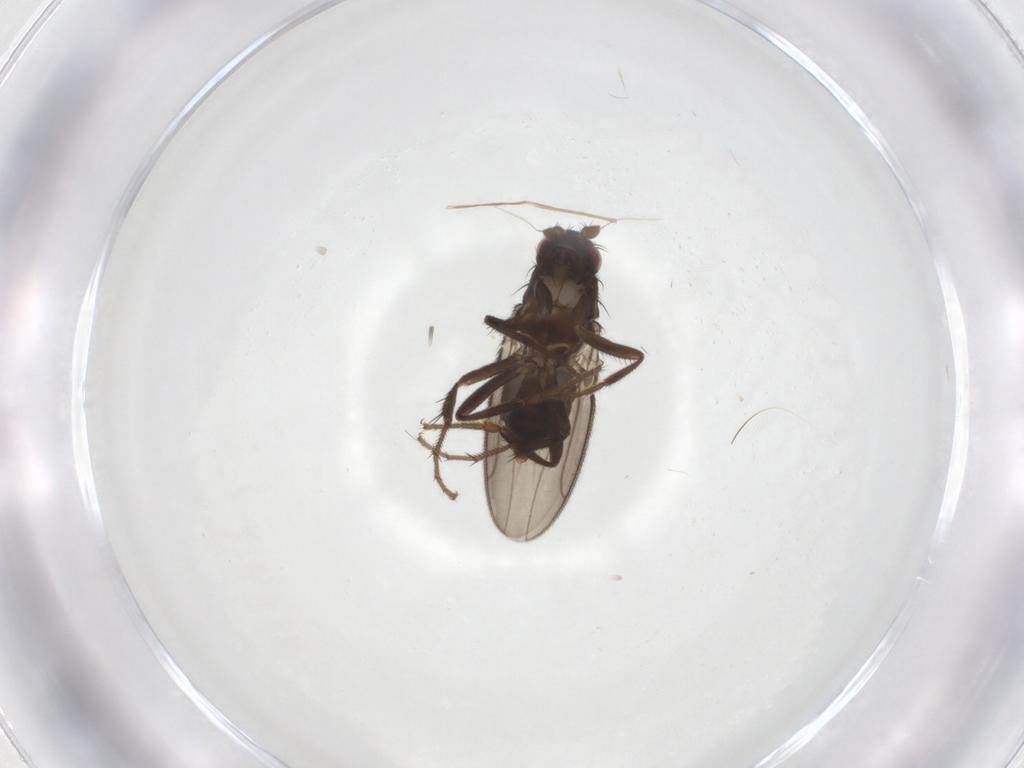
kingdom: Animalia
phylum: Arthropoda
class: Insecta
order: Diptera
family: Sphaeroceridae
